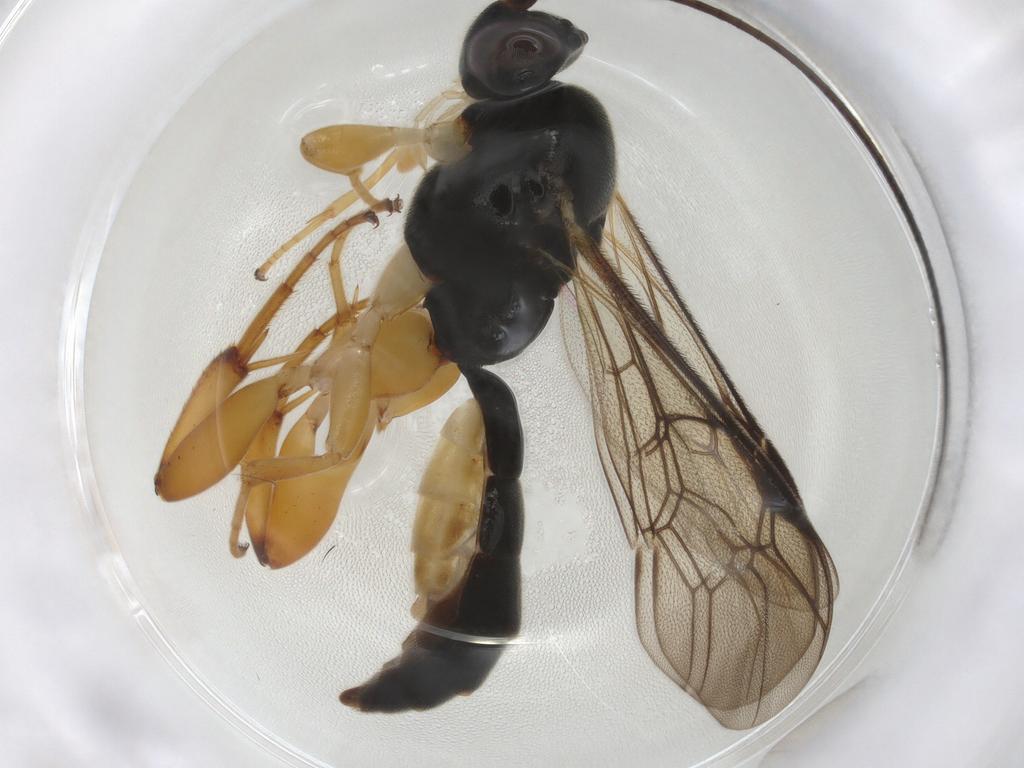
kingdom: Animalia
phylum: Arthropoda
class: Insecta
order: Hymenoptera
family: Ichneumonidae
